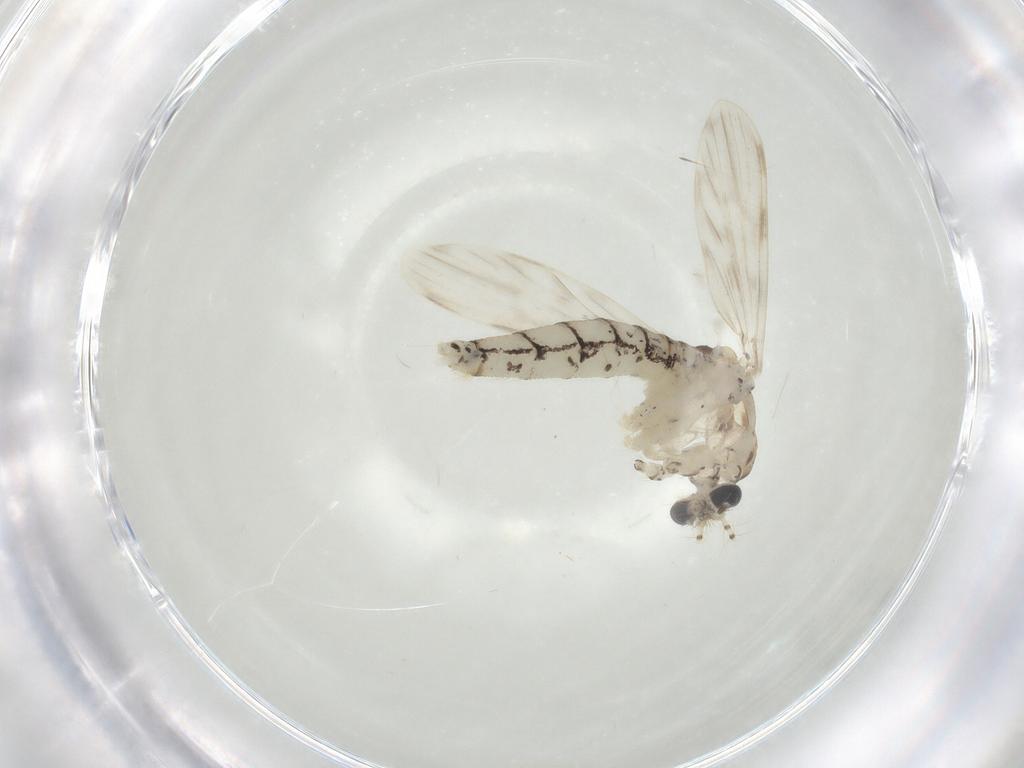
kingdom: Animalia
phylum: Arthropoda
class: Insecta
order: Diptera
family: Chaoboridae
